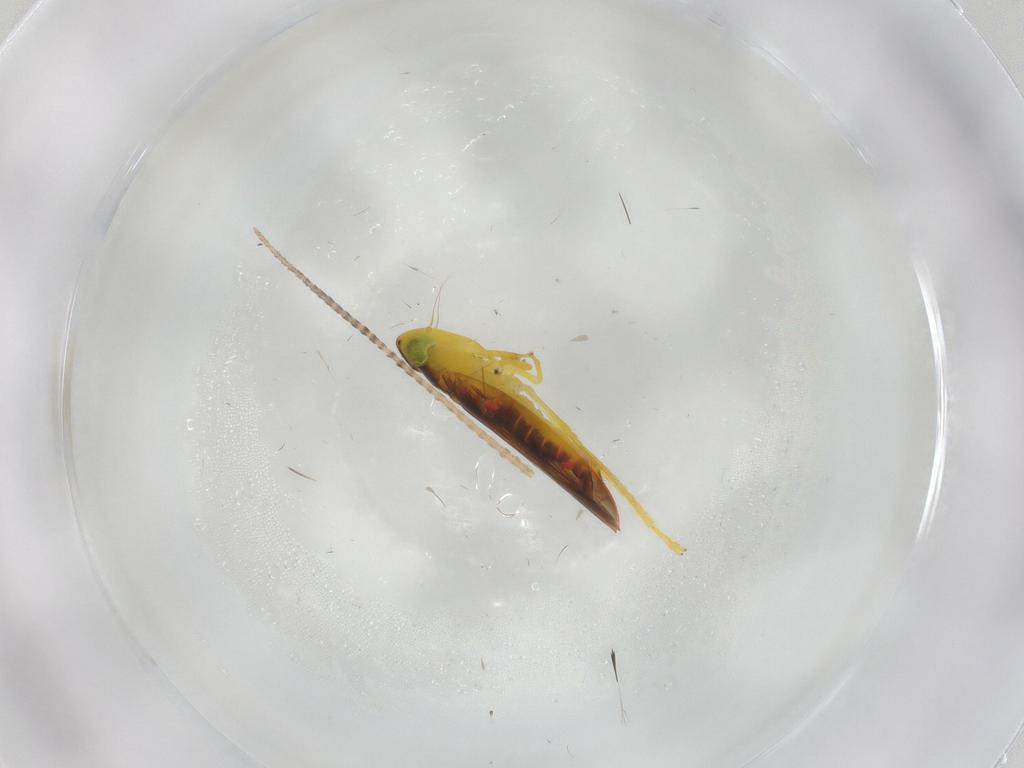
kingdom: Animalia
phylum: Arthropoda
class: Insecta
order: Hemiptera
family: Cicadellidae
